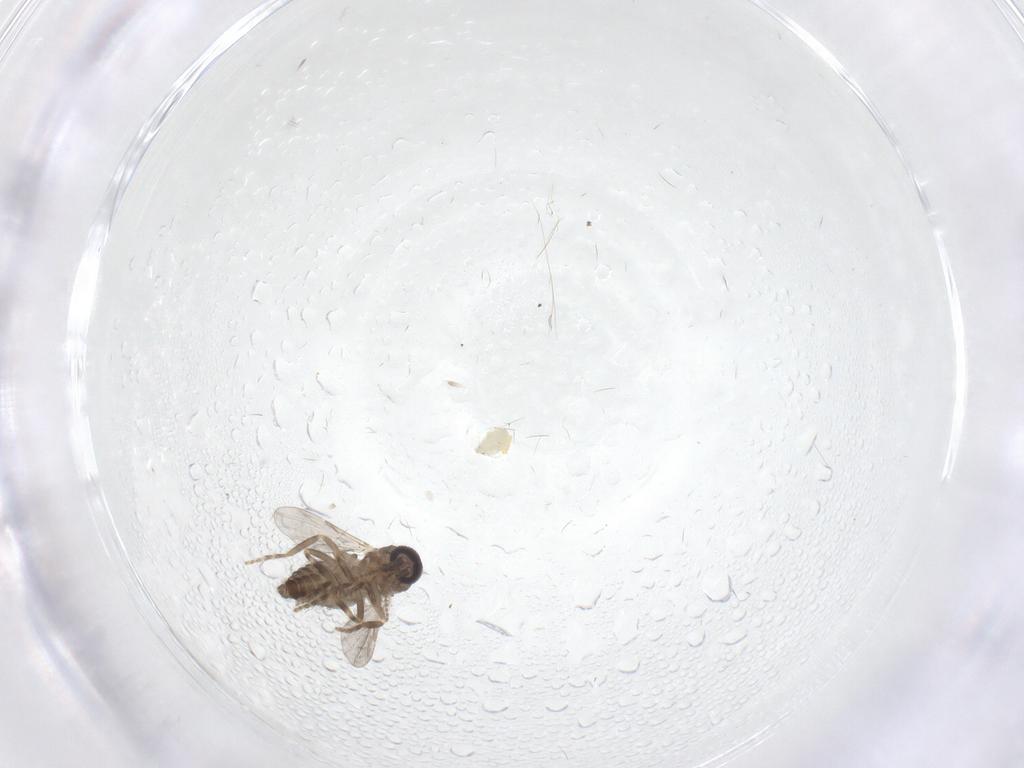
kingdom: Animalia
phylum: Arthropoda
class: Insecta
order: Diptera
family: Cecidomyiidae
